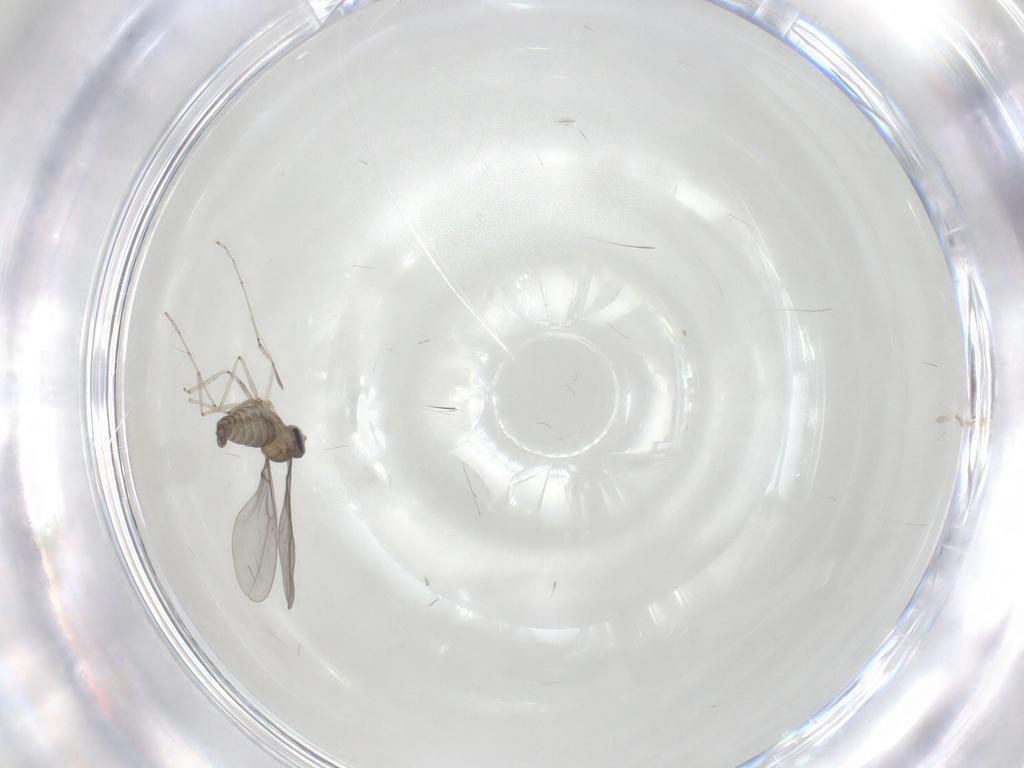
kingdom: Animalia
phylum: Arthropoda
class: Insecta
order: Diptera
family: Cecidomyiidae
